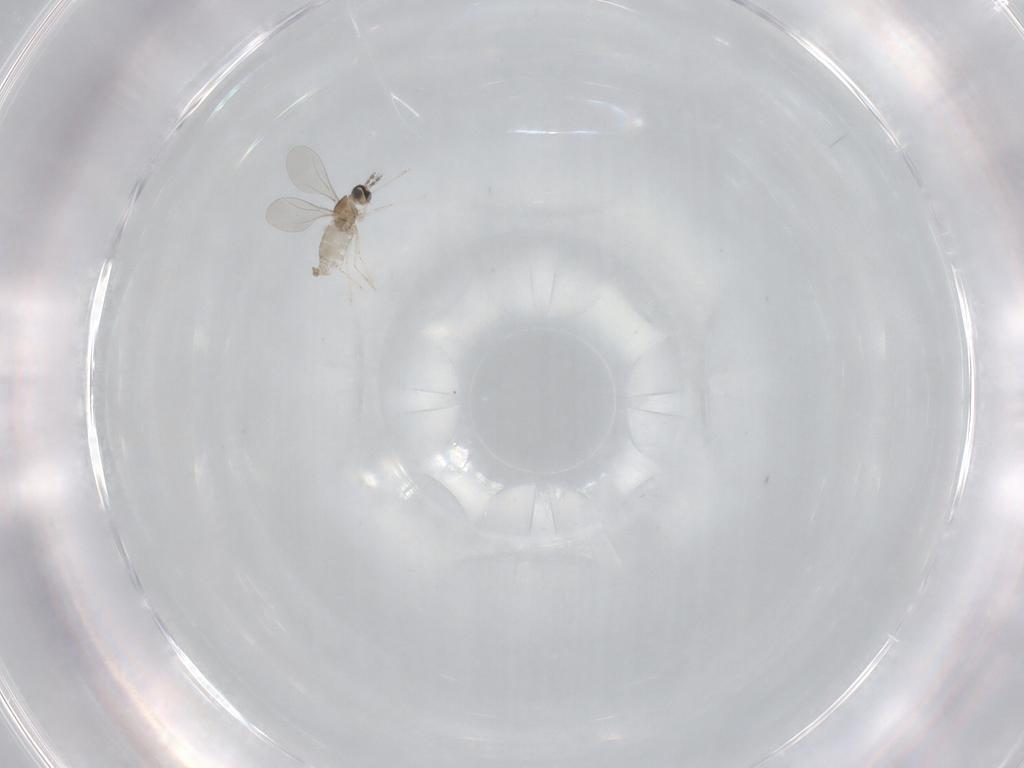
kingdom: Animalia
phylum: Arthropoda
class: Insecta
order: Diptera
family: Cecidomyiidae
